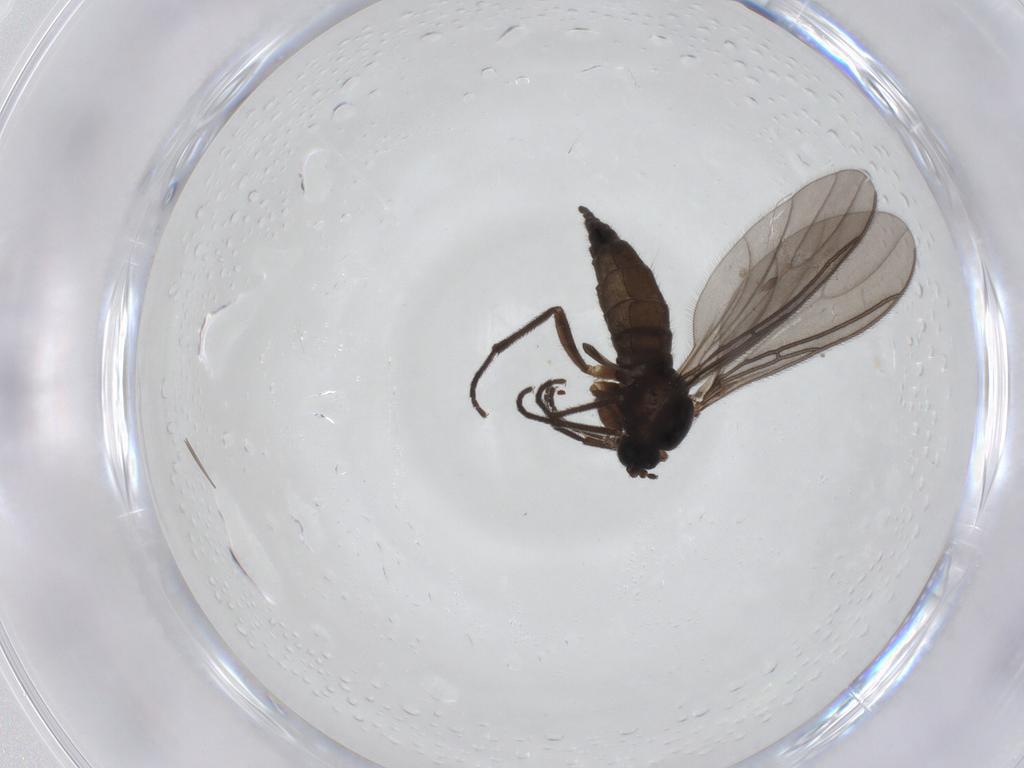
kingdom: Animalia
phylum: Arthropoda
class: Insecta
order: Diptera
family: Sciaridae
